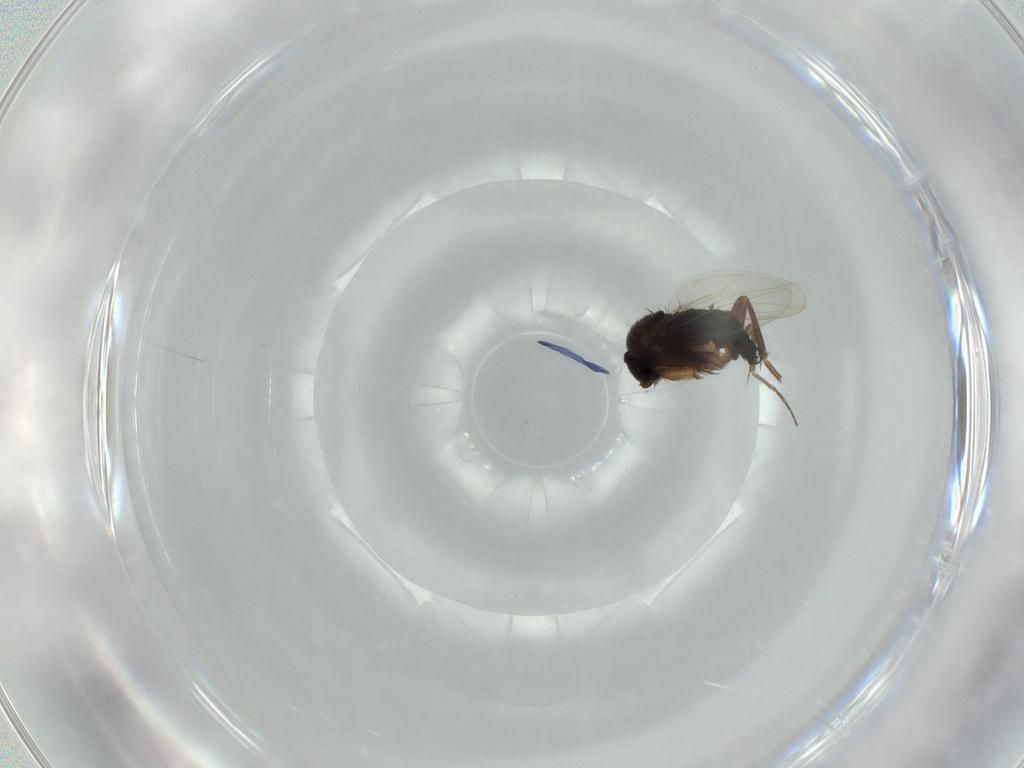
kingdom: Animalia
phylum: Arthropoda
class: Insecta
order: Diptera
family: Phoridae
